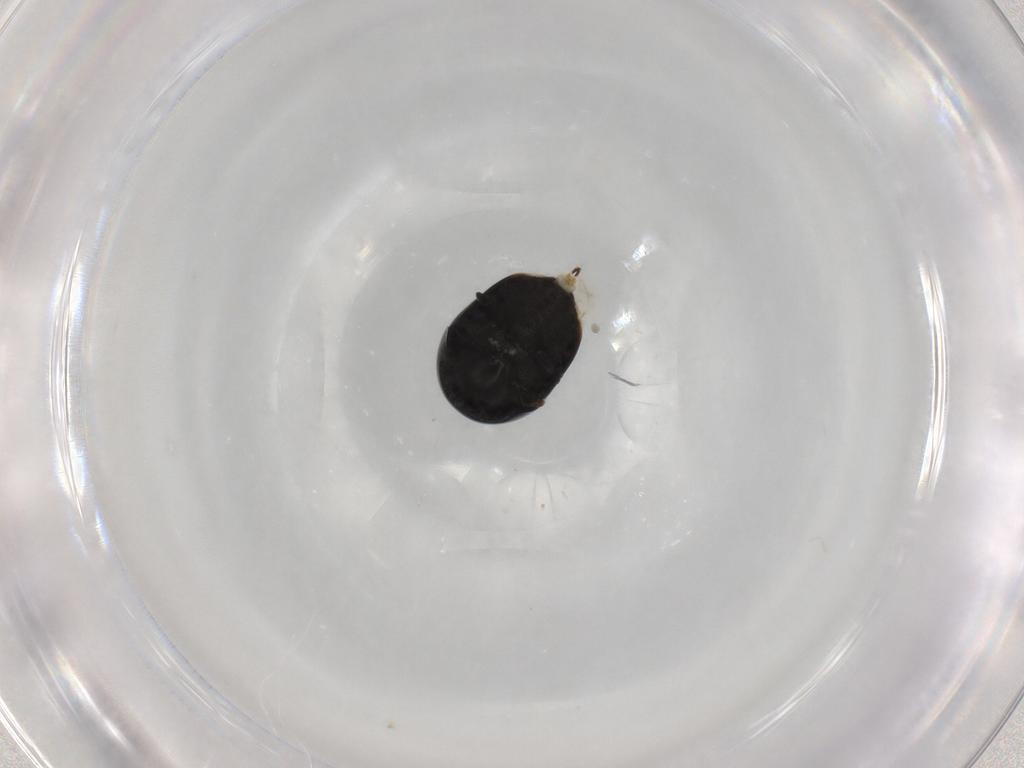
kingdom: Animalia
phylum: Arthropoda
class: Insecta
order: Coleoptera
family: Cybocephalidae
